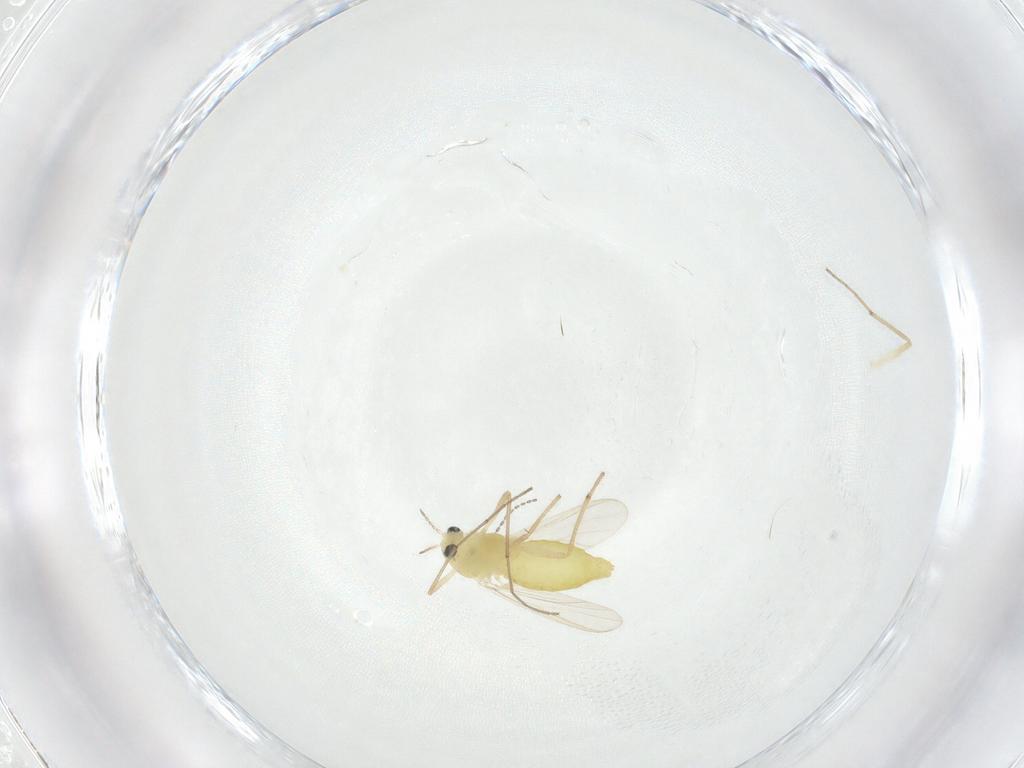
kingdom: Animalia
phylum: Arthropoda
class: Insecta
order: Diptera
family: Chironomidae
